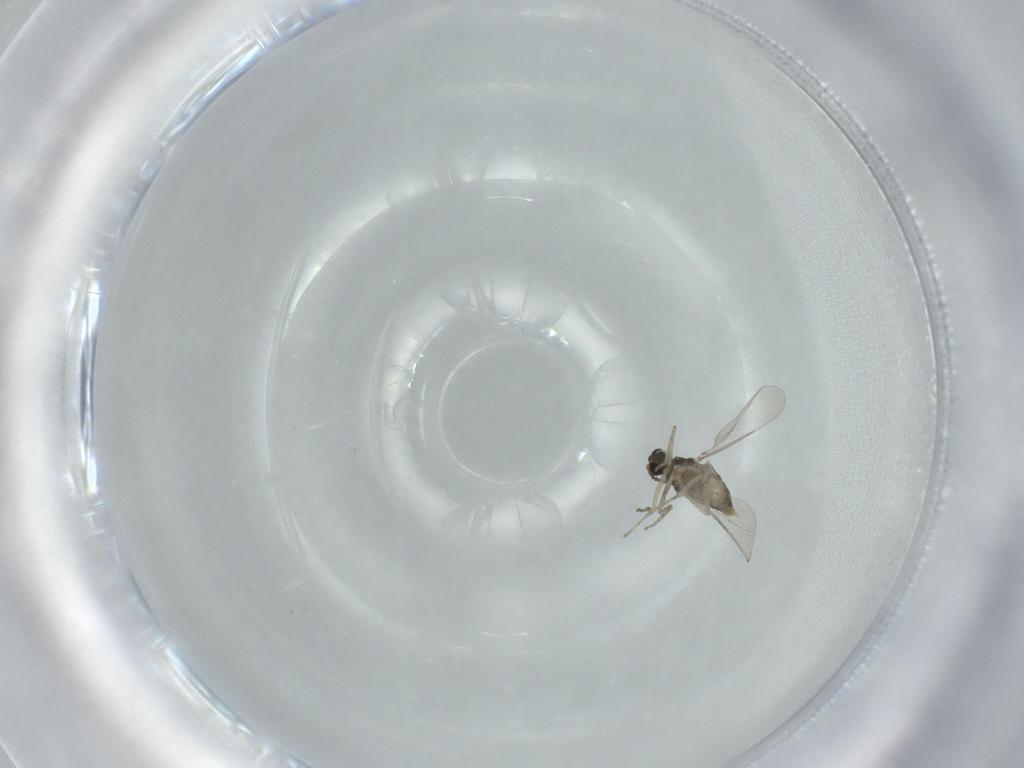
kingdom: Animalia
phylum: Arthropoda
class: Insecta
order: Diptera
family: Cecidomyiidae
